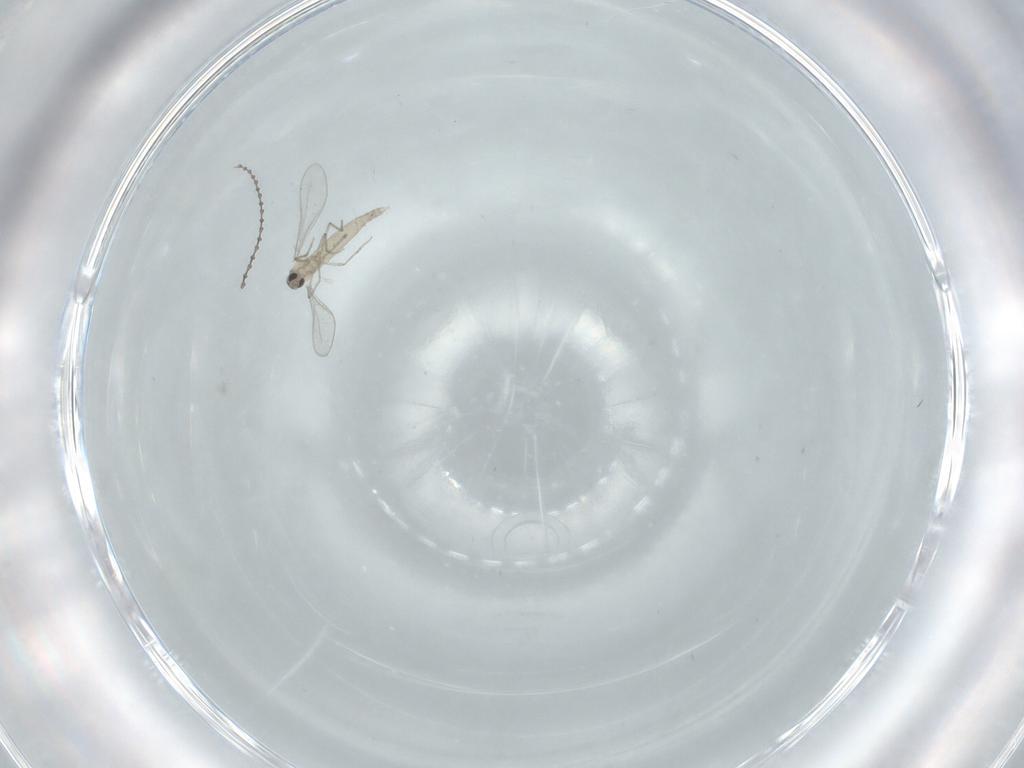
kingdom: Animalia
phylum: Arthropoda
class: Insecta
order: Diptera
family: Cecidomyiidae
